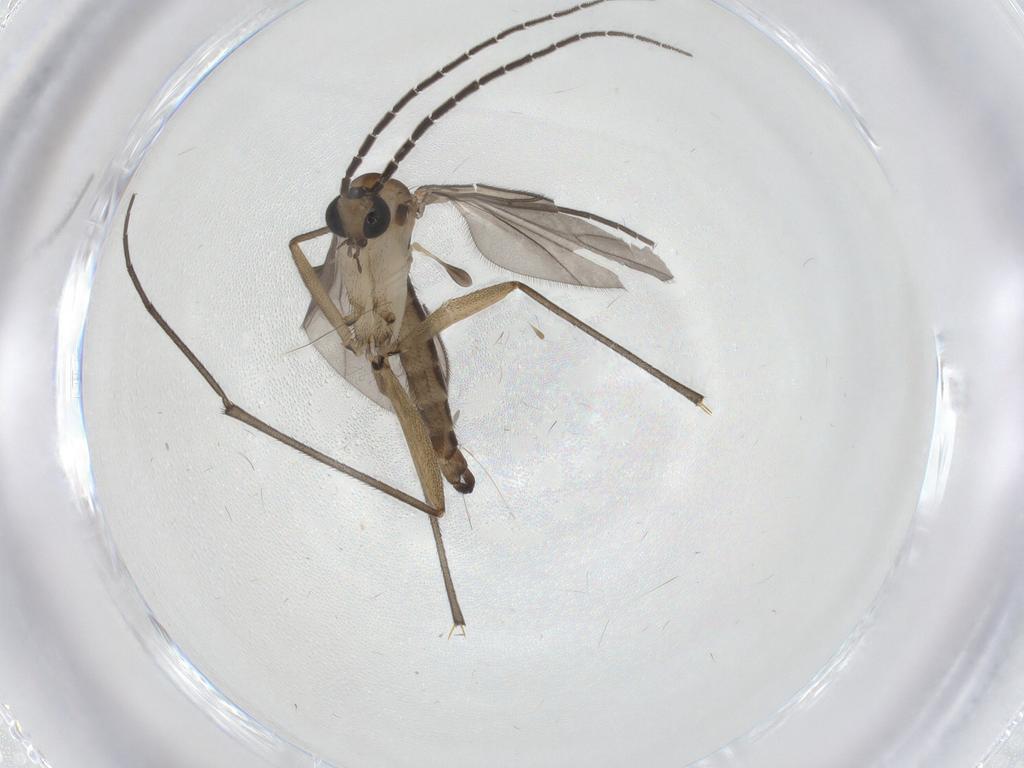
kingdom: Animalia
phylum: Arthropoda
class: Insecta
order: Diptera
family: Sciaridae
